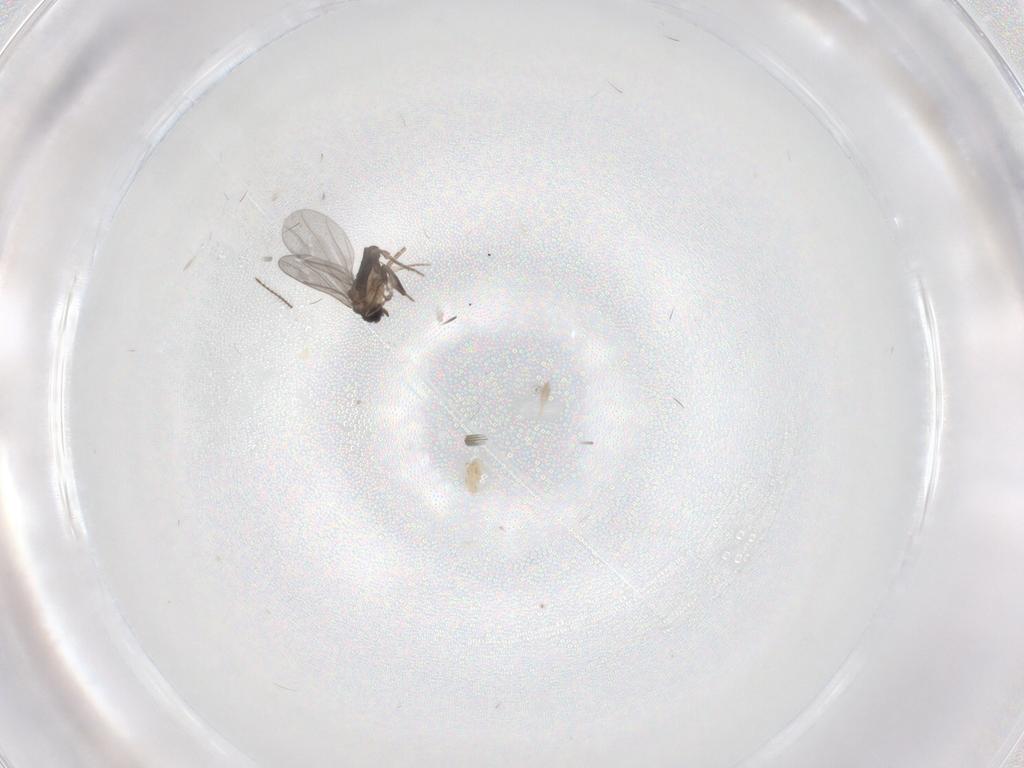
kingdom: Animalia
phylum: Arthropoda
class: Insecta
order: Diptera
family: Chironomidae
